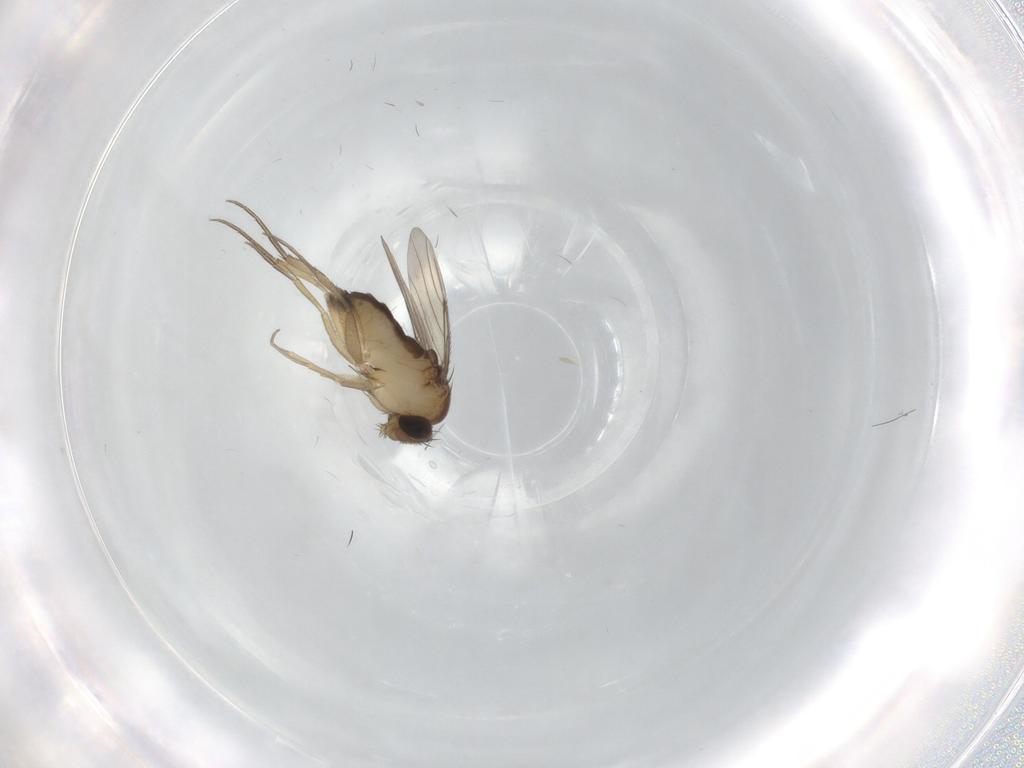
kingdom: Animalia
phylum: Arthropoda
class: Insecta
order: Diptera
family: Phoridae
